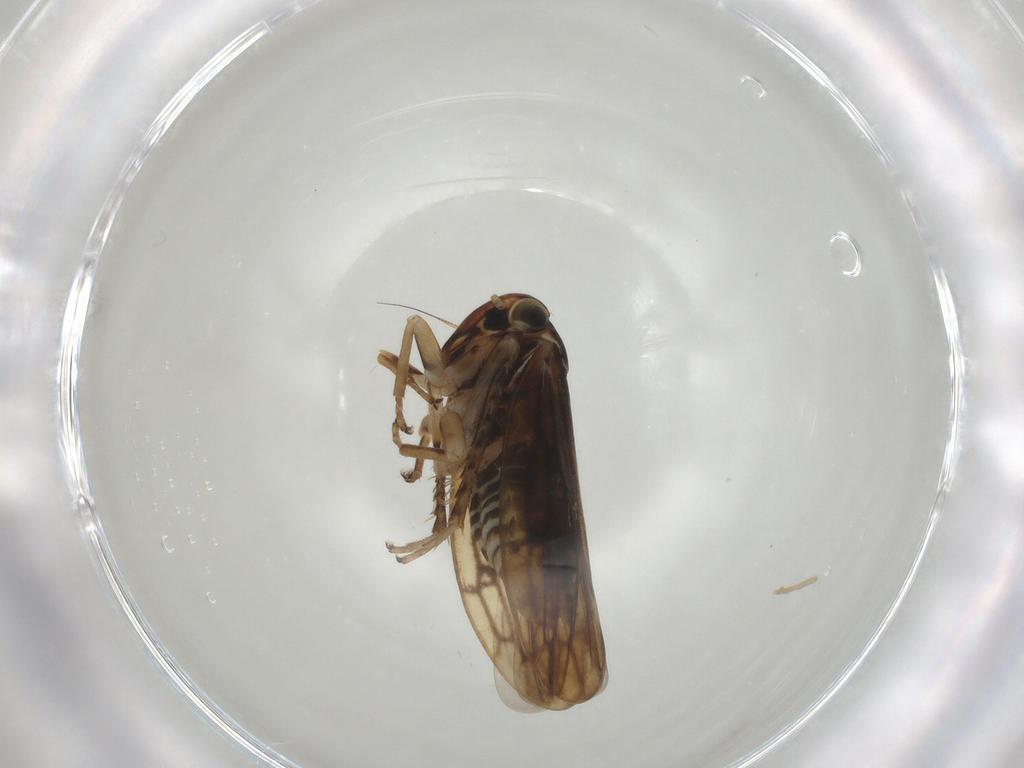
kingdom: Animalia
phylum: Arthropoda
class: Insecta
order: Hemiptera
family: Cicadellidae
